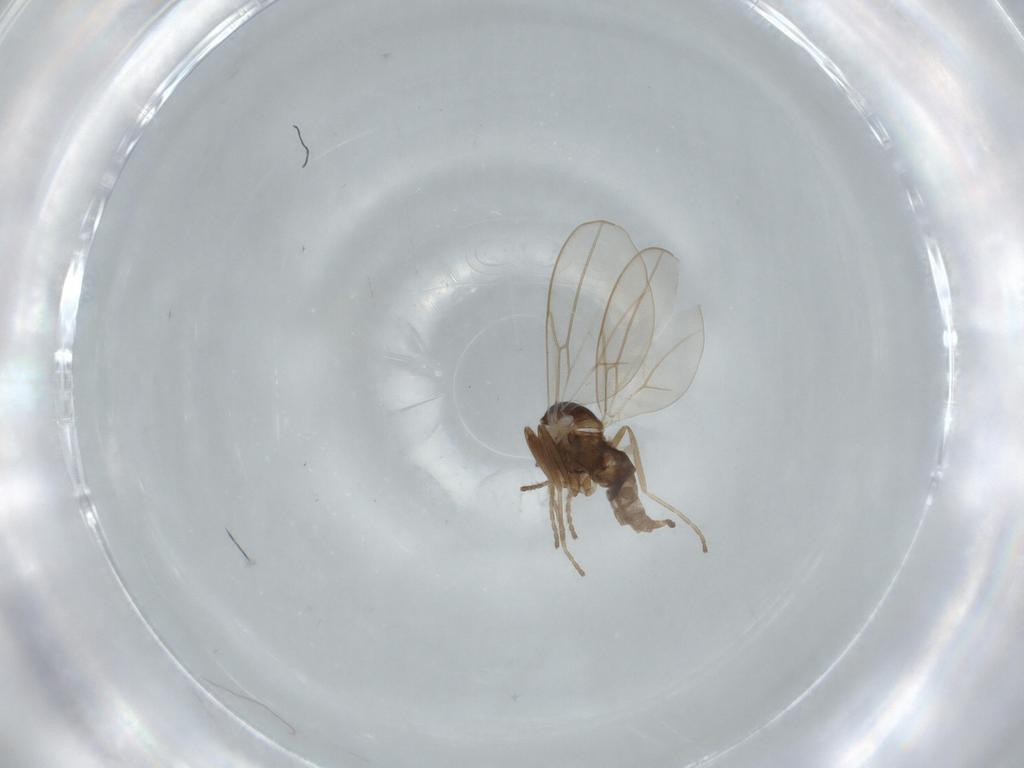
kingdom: Animalia
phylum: Arthropoda
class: Insecta
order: Diptera
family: Cecidomyiidae
